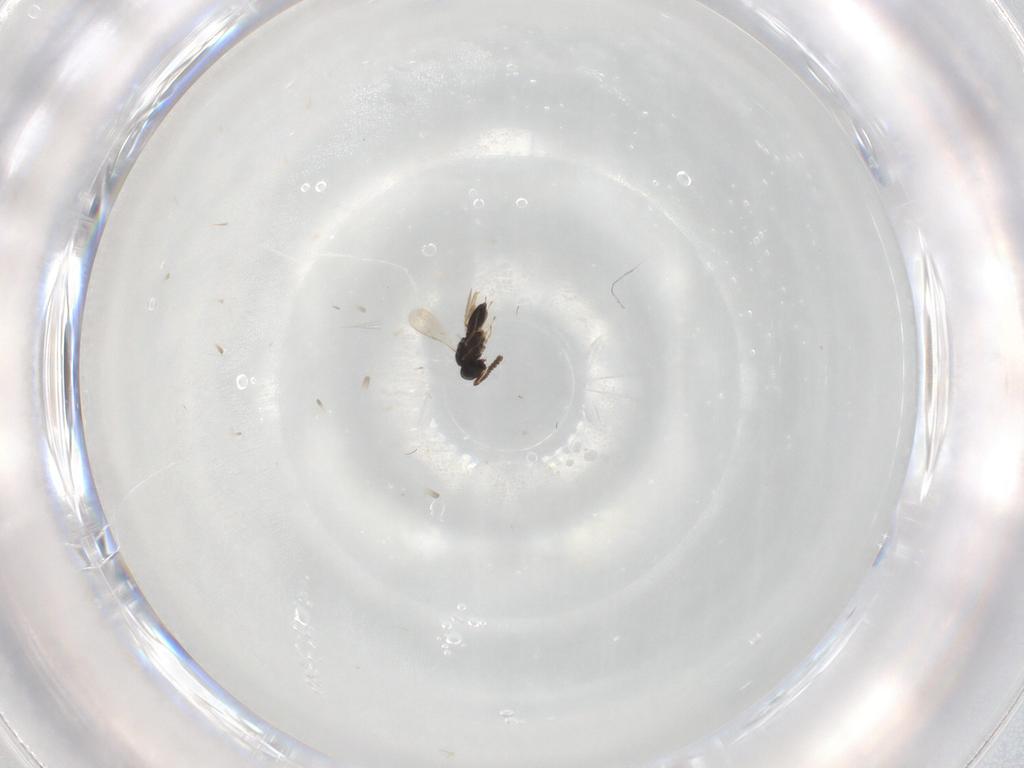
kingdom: Animalia
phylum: Arthropoda
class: Insecta
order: Hymenoptera
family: Scelionidae
